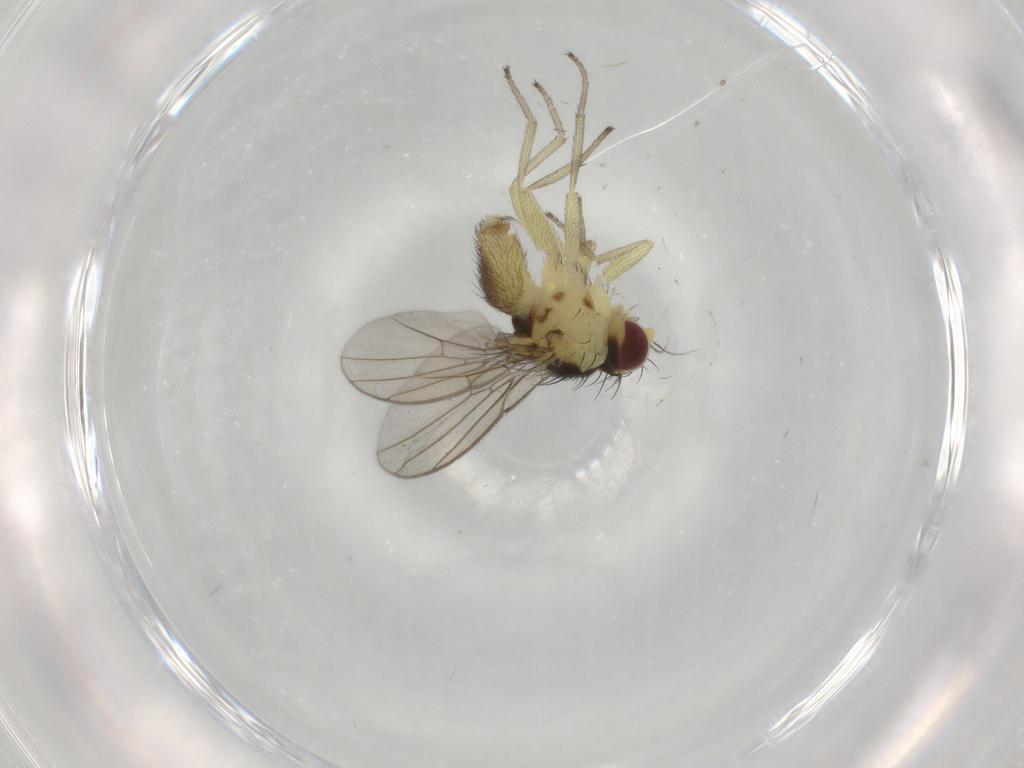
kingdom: Animalia
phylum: Arthropoda
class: Insecta
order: Diptera
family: Agromyzidae
